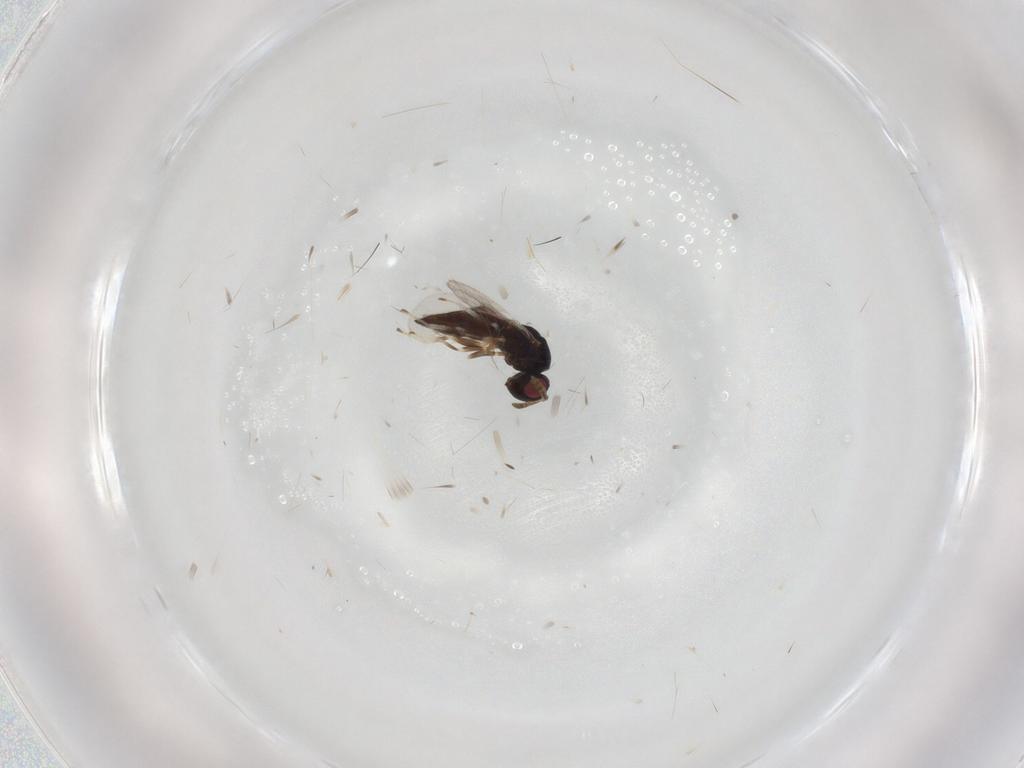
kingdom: Animalia
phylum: Arthropoda
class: Insecta
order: Hymenoptera
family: Pteromalidae
